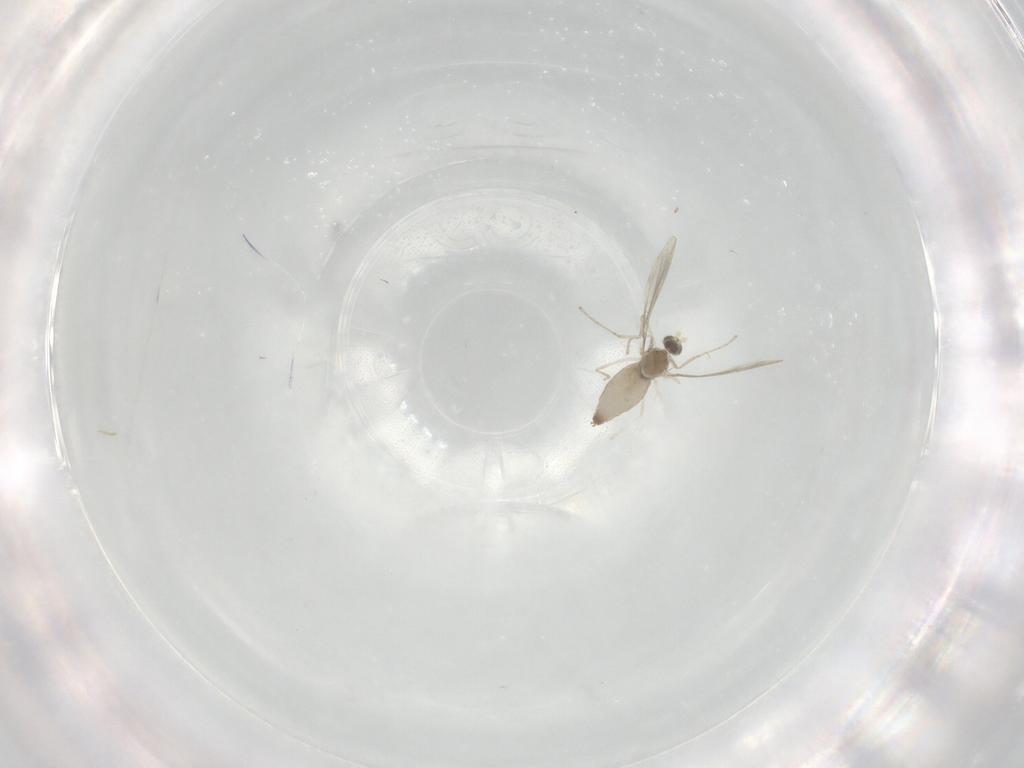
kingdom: Animalia
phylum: Arthropoda
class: Insecta
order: Diptera
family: Cecidomyiidae
